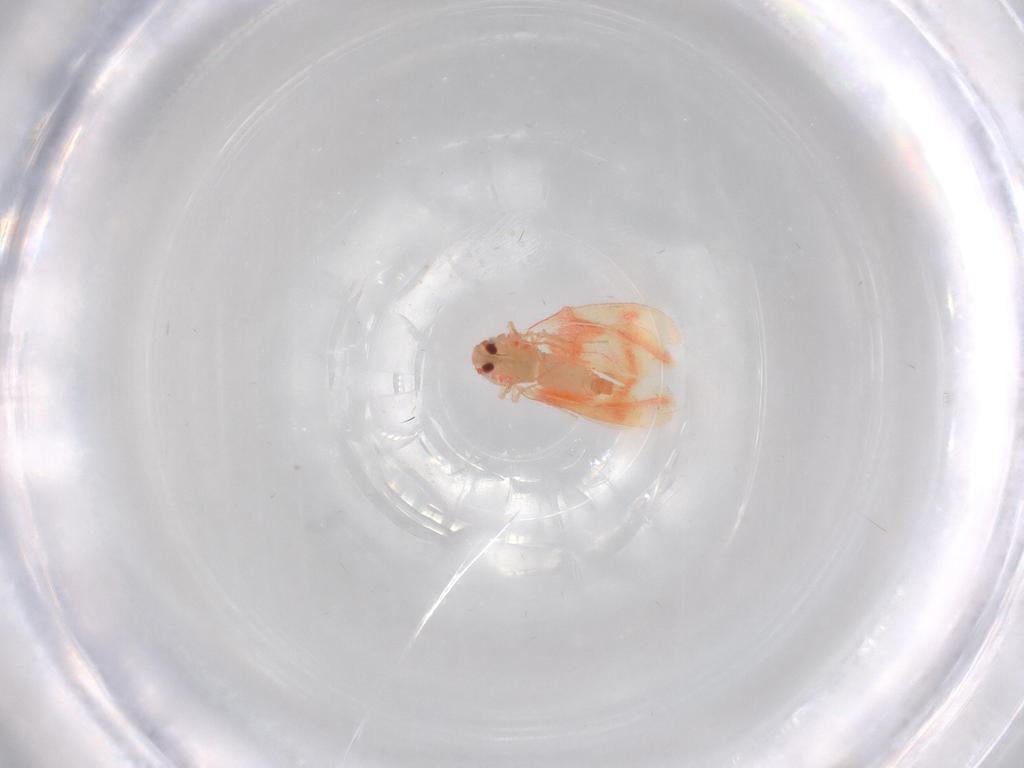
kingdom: Animalia
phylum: Arthropoda
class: Insecta
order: Hemiptera
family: Aleyrodidae
